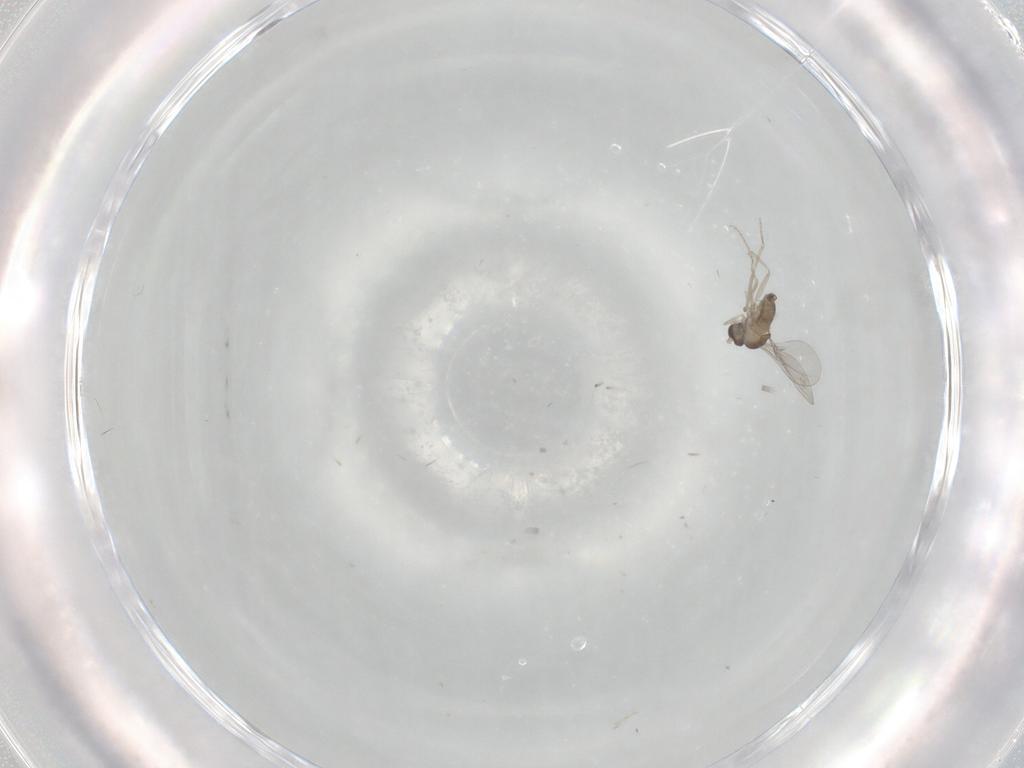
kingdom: Animalia
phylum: Arthropoda
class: Insecta
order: Diptera
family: Cecidomyiidae
